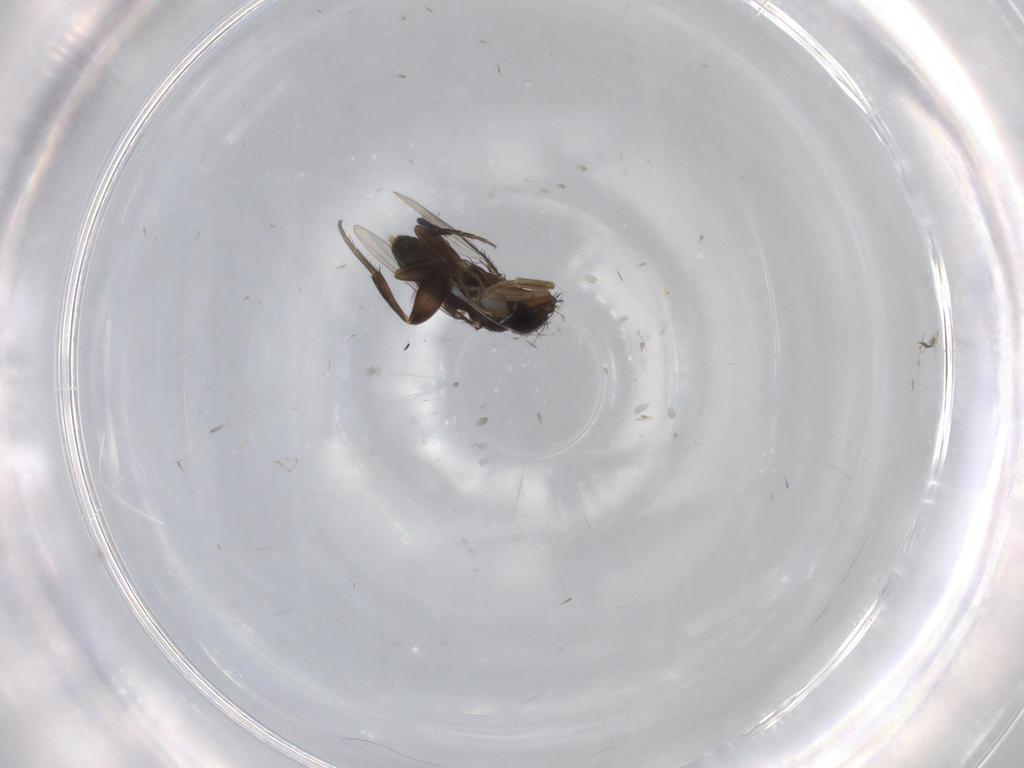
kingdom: Animalia
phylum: Arthropoda
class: Insecta
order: Diptera
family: Phoridae
